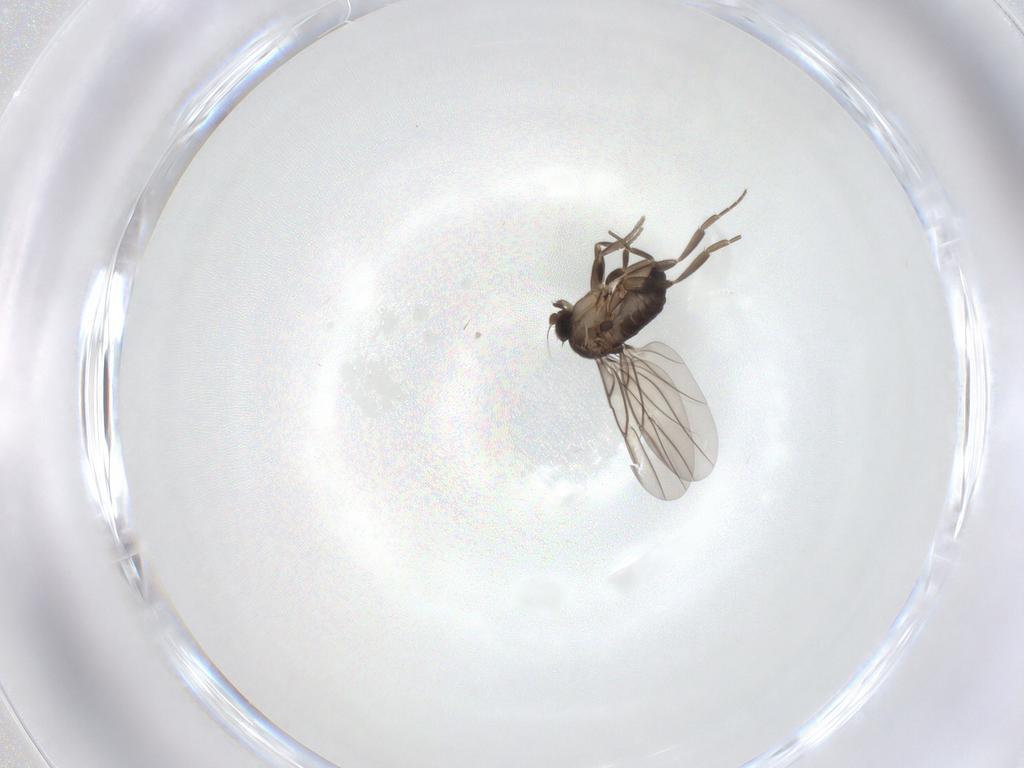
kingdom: Animalia
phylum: Arthropoda
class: Insecta
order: Diptera
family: Phoridae
